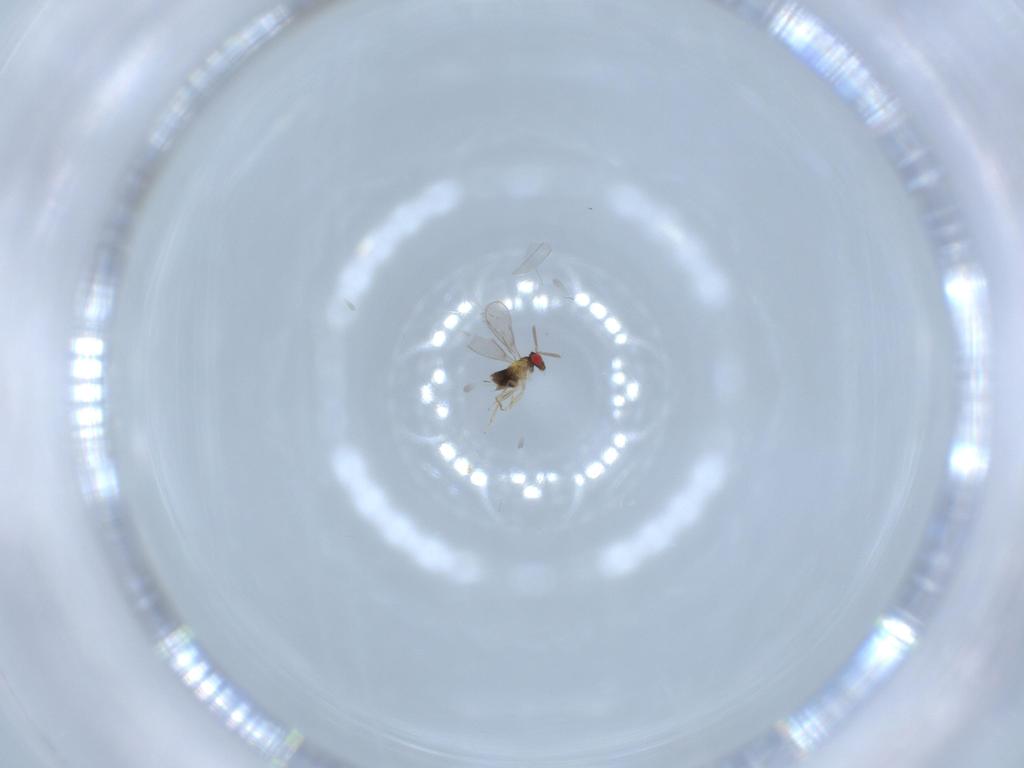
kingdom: Animalia
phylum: Arthropoda
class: Insecta
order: Hymenoptera
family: Aphelinidae
